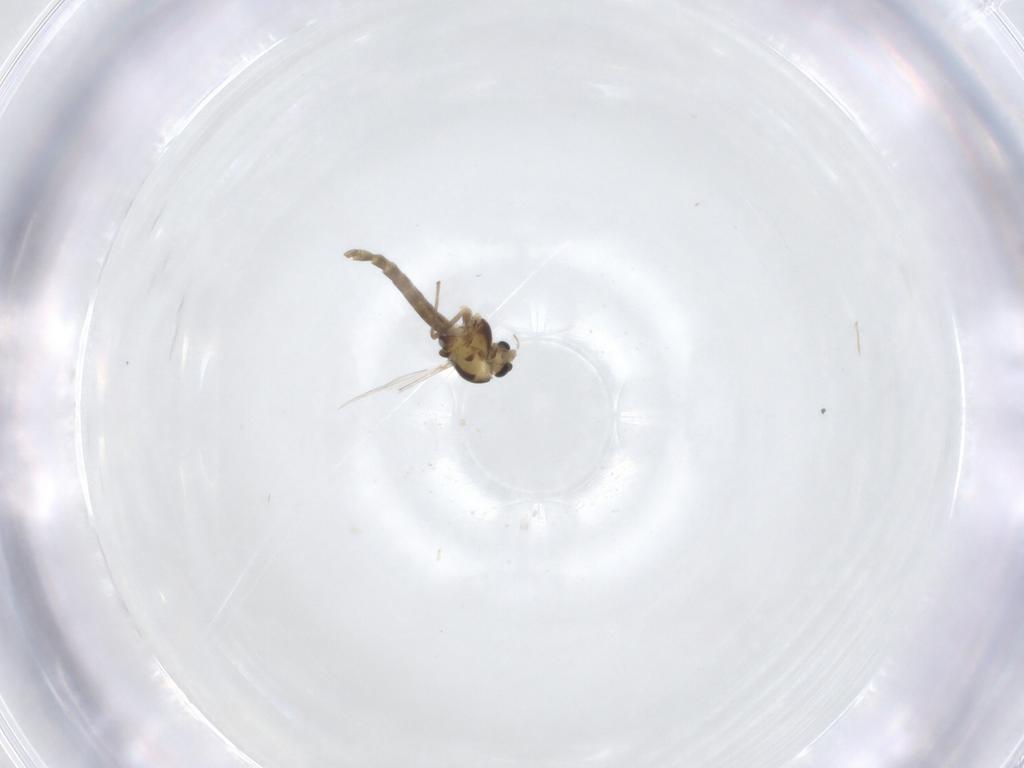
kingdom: Animalia
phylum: Arthropoda
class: Insecta
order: Diptera
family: Chironomidae
